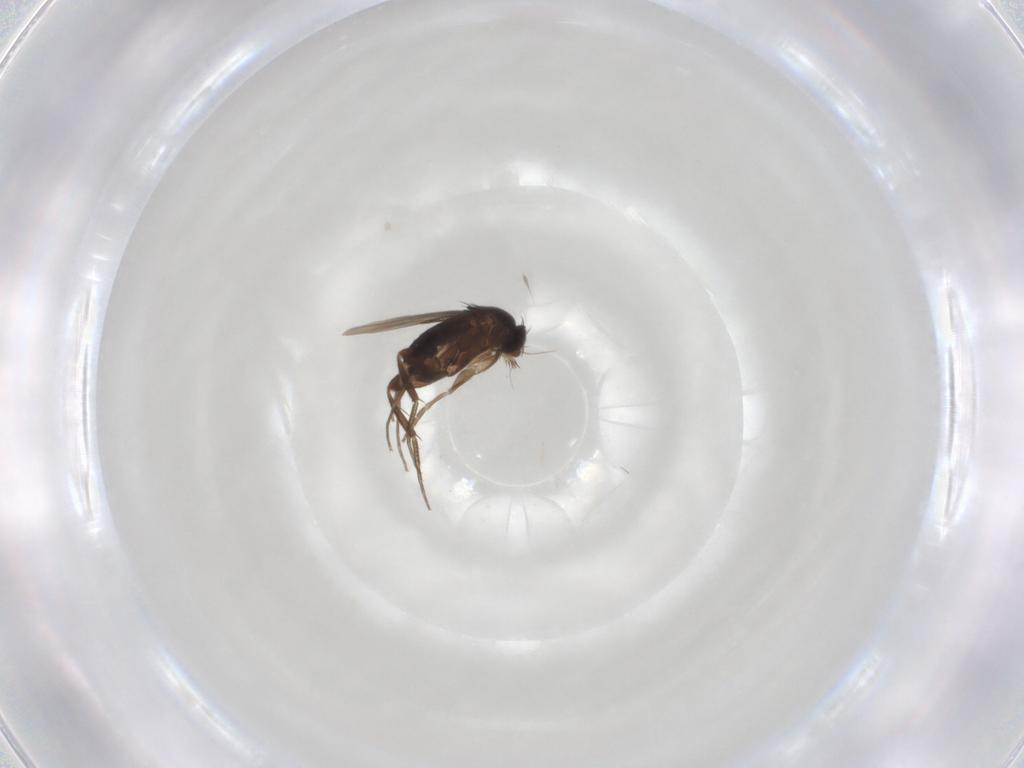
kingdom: Animalia
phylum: Arthropoda
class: Insecta
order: Diptera
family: Phoridae
